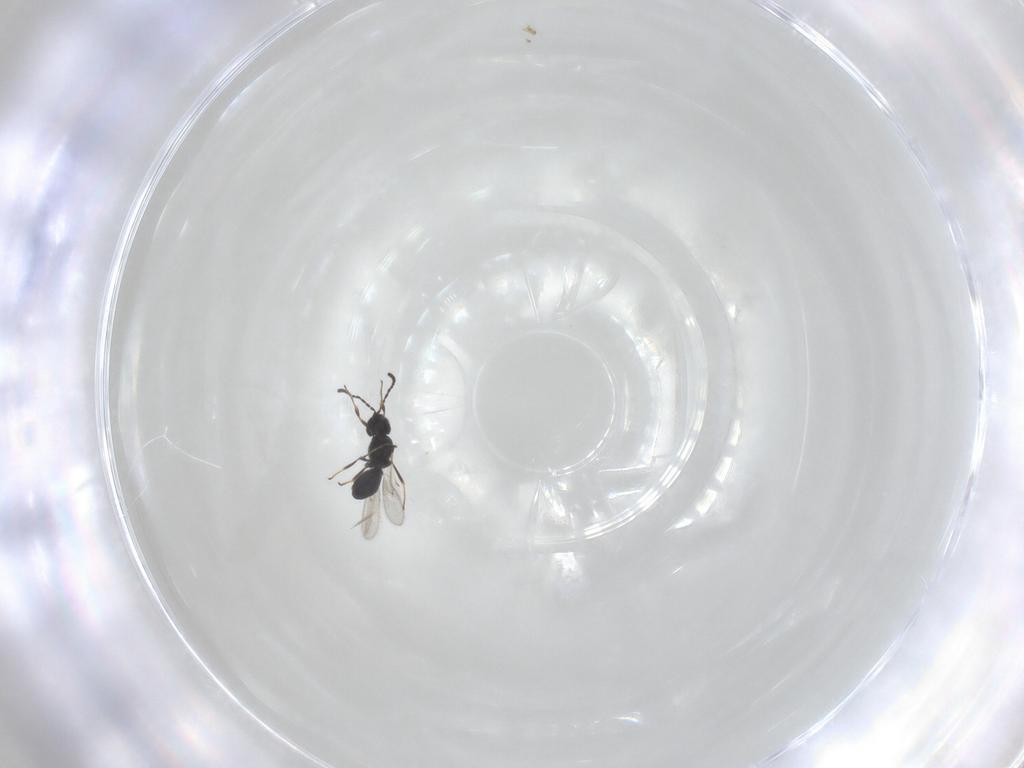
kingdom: Animalia
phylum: Arthropoda
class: Insecta
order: Hymenoptera
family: Scelionidae
